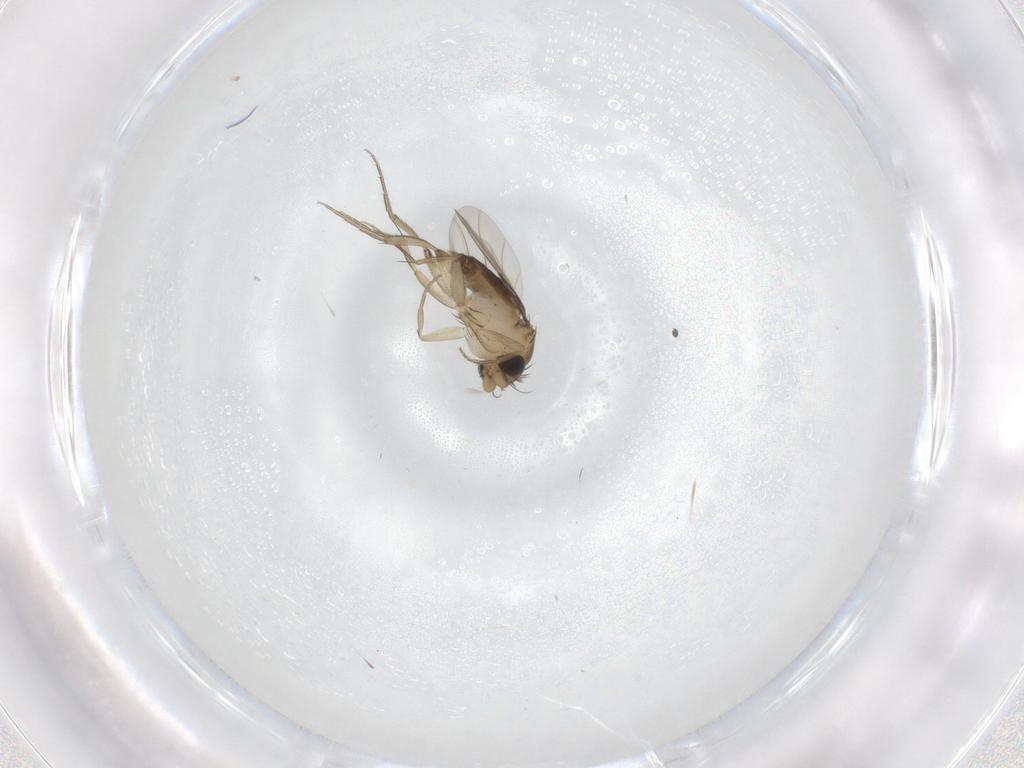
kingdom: Animalia
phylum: Arthropoda
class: Insecta
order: Diptera
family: Phoridae
